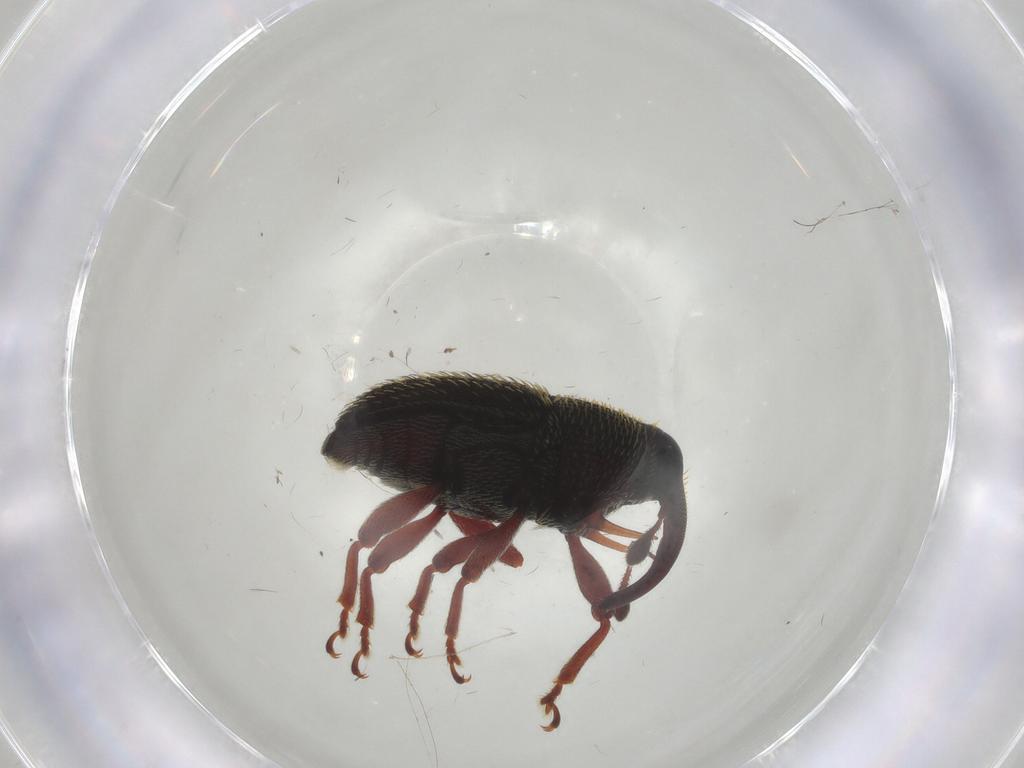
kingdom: Animalia
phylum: Arthropoda
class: Insecta
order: Coleoptera
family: Curculionidae
